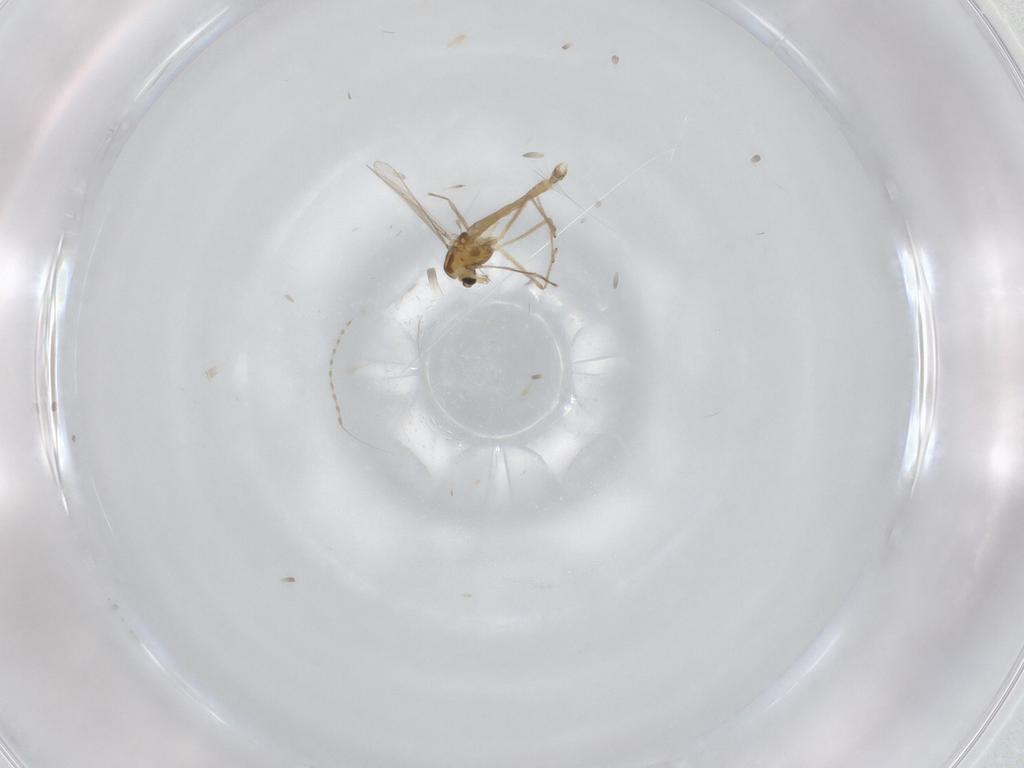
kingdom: Animalia
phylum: Arthropoda
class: Insecta
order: Diptera
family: Chironomidae
